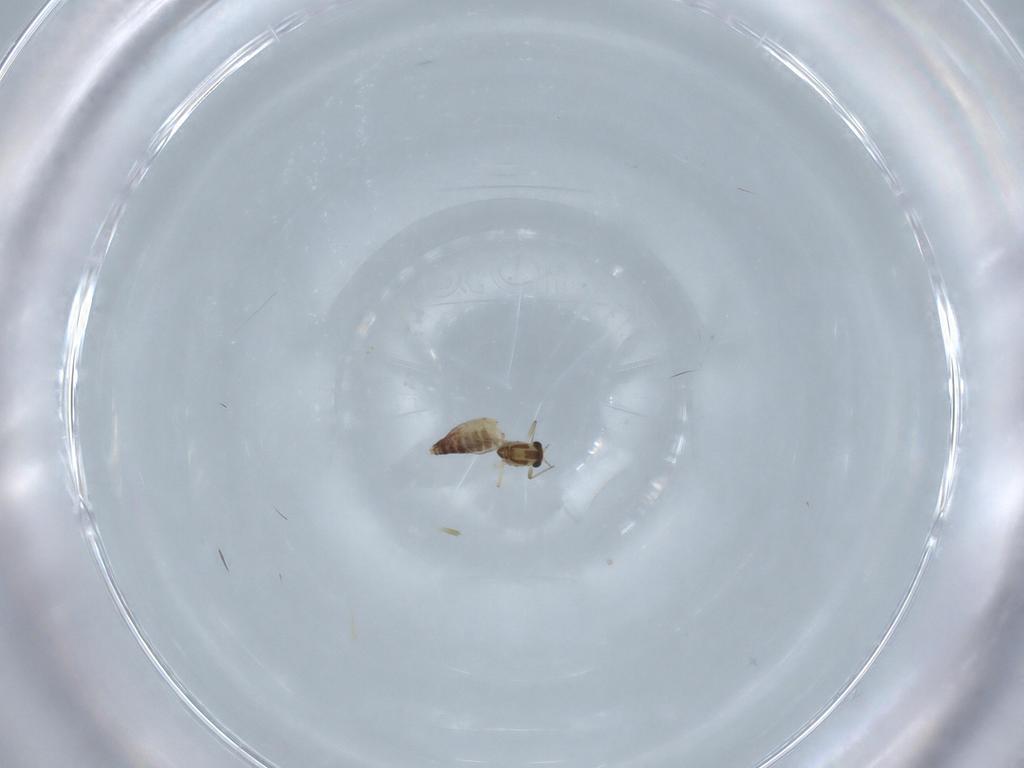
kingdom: Animalia
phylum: Arthropoda
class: Insecta
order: Diptera
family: Chironomidae
